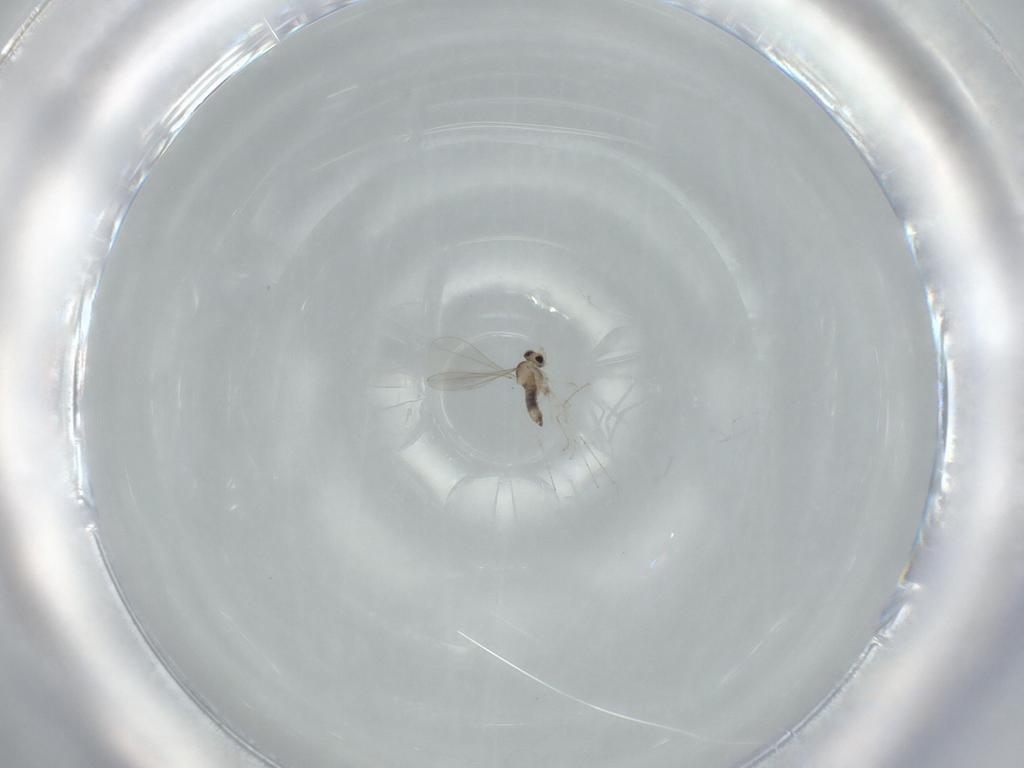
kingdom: Animalia
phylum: Arthropoda
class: Insecta
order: Diptera
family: Cecidomyiidae
